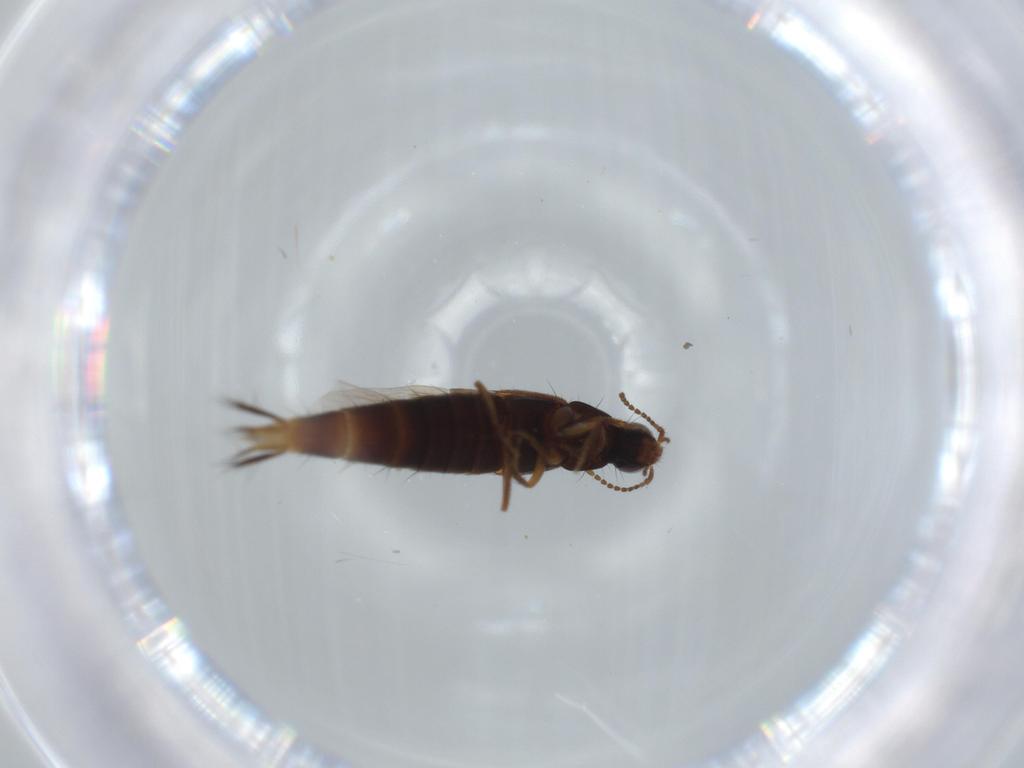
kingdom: Animalia
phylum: Arthropoda
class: Insecta
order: Coleoptera
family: Staphylinidae
